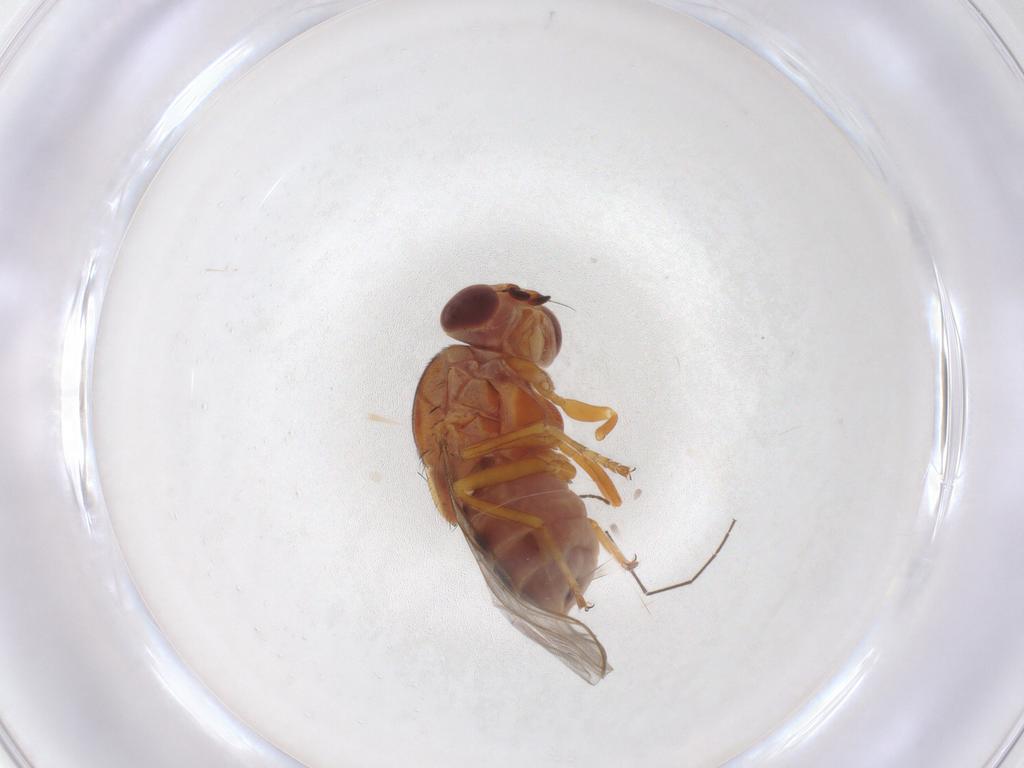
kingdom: Animalia
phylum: Arthropoda
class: Insecta
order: Diptera
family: Chloropidae
